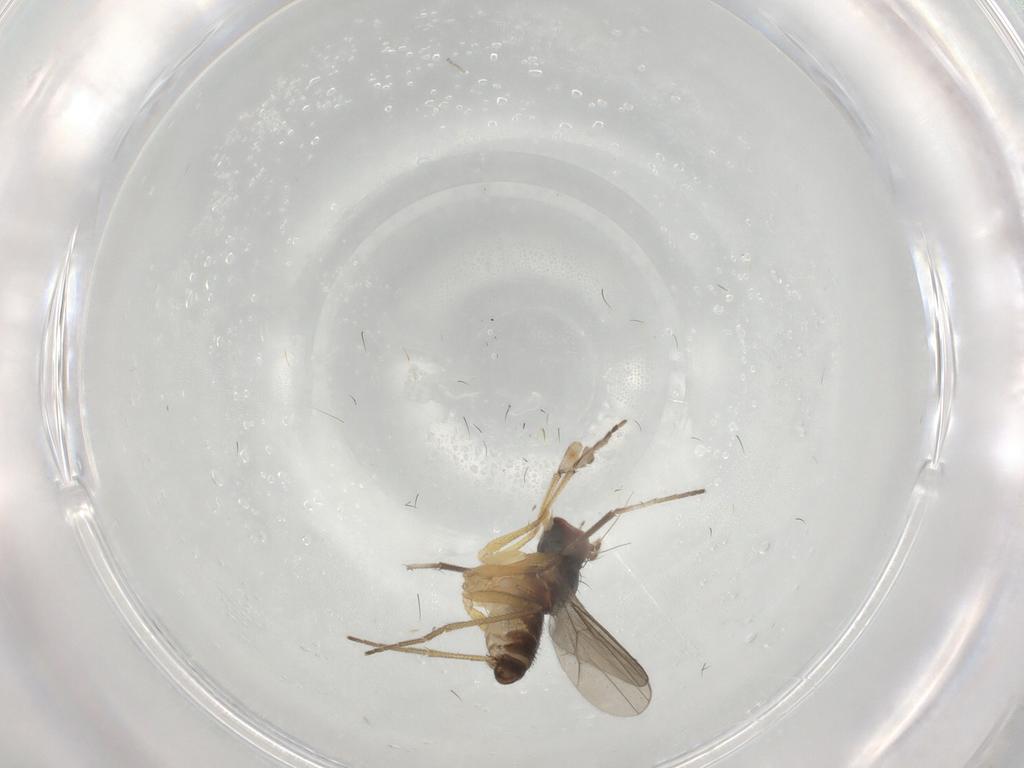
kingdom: Animalia
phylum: Arthropoda
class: Insecta
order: Diptera
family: Dolichopodidae
